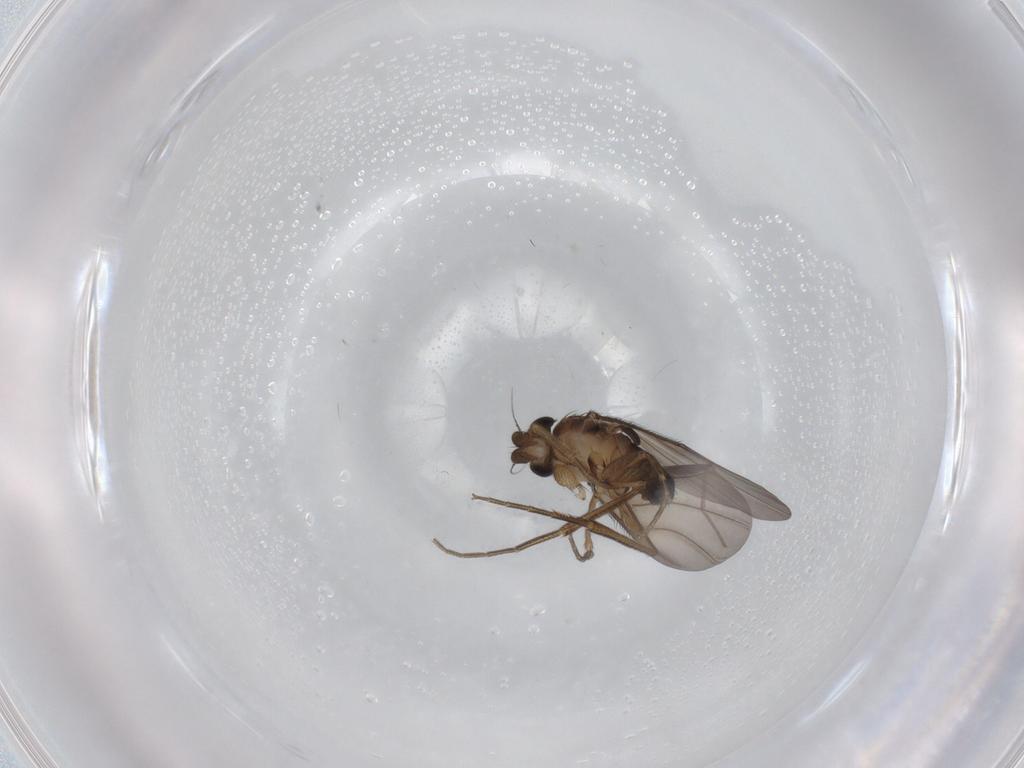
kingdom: Animalia
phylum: Arthropoda
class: Insecta
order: Diptera
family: Phoridae
